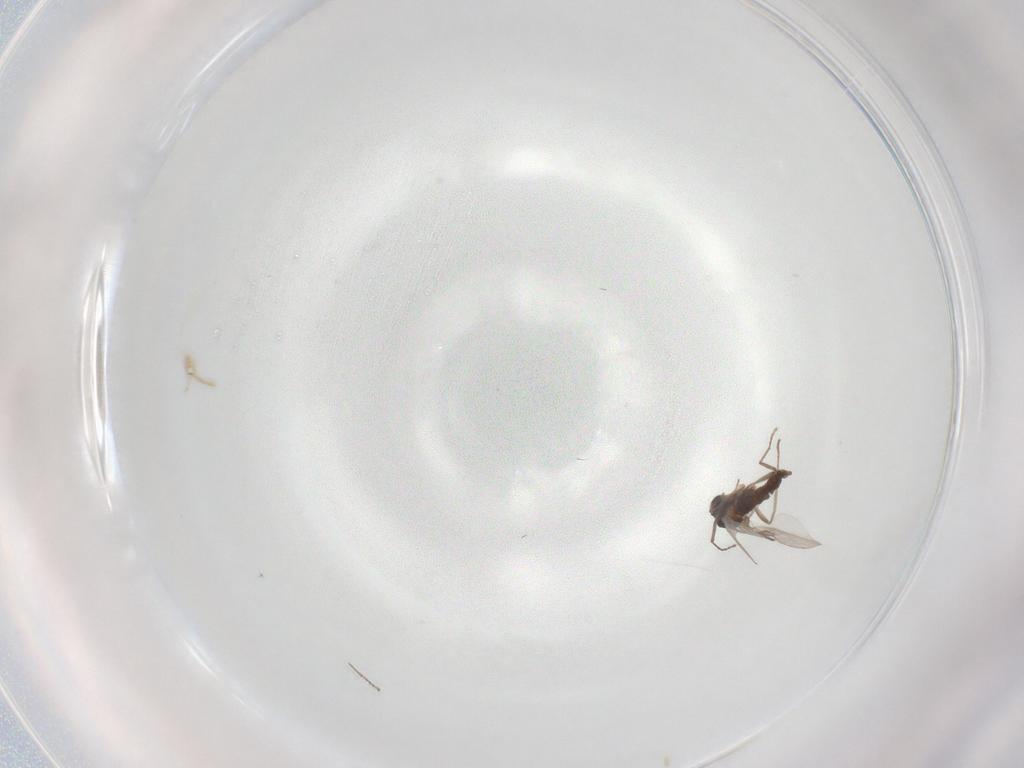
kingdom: Animalia
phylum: Arthropoda
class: Insecta
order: Diptera
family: Cecidomyiidae
